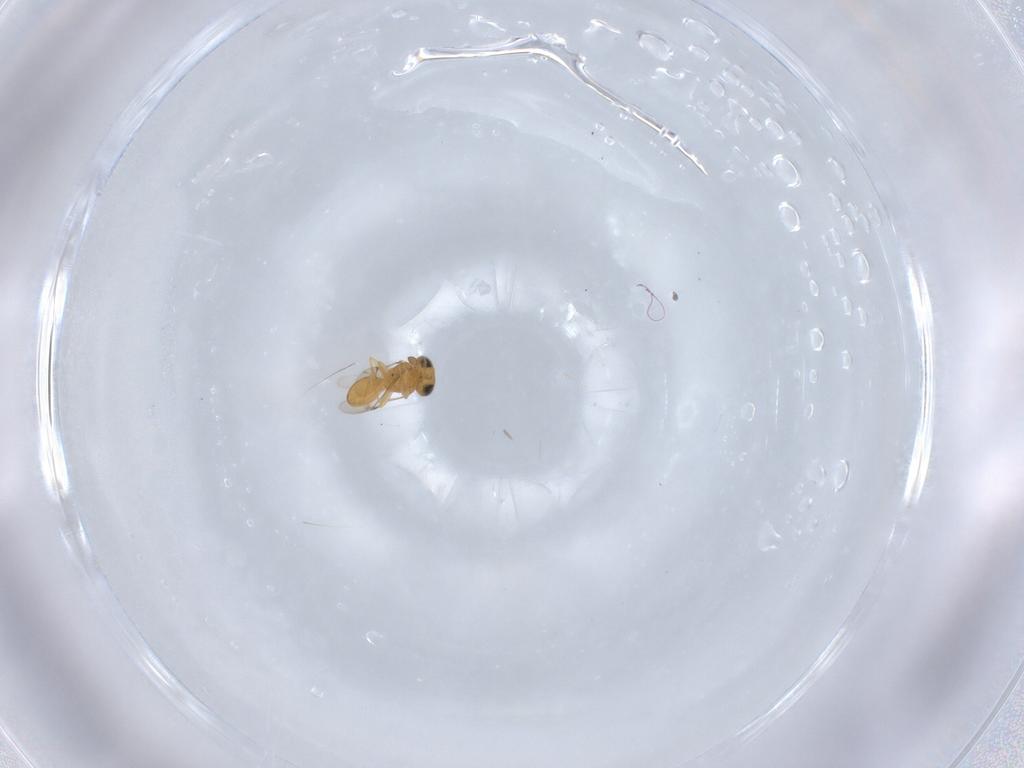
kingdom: Animalia
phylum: Arthropoda
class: Insecta
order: Hymenoptera
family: Scelionidae
